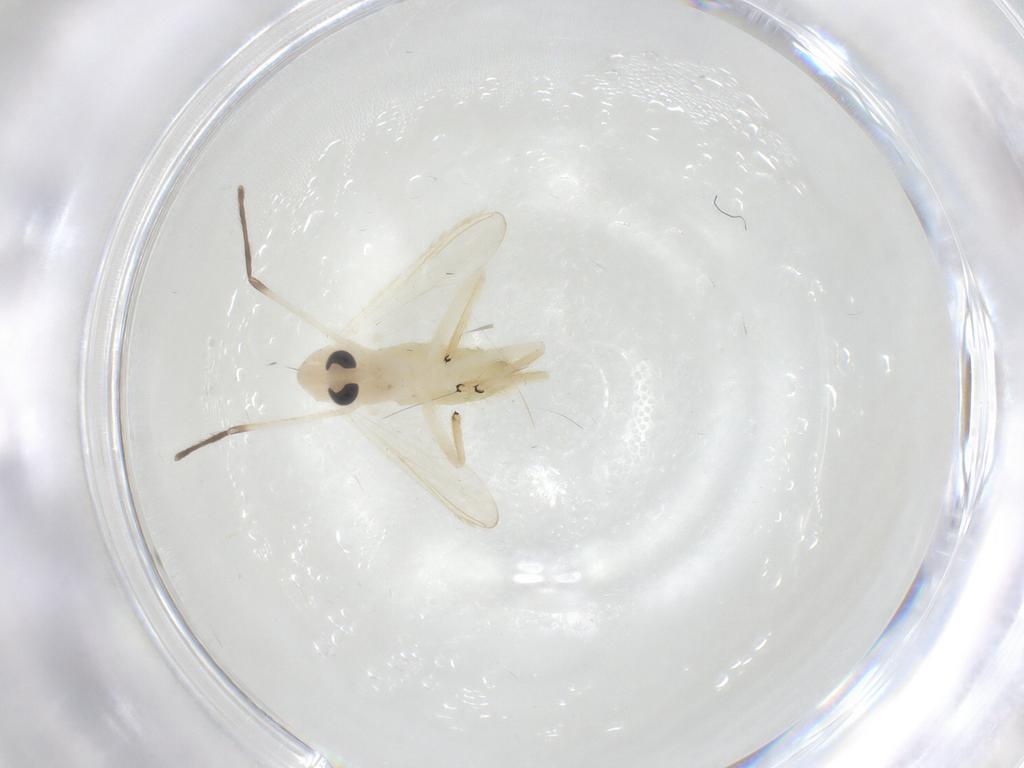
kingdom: Animalia
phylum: Arthropoda
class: Insecta
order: Diptera
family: Chironomidae
